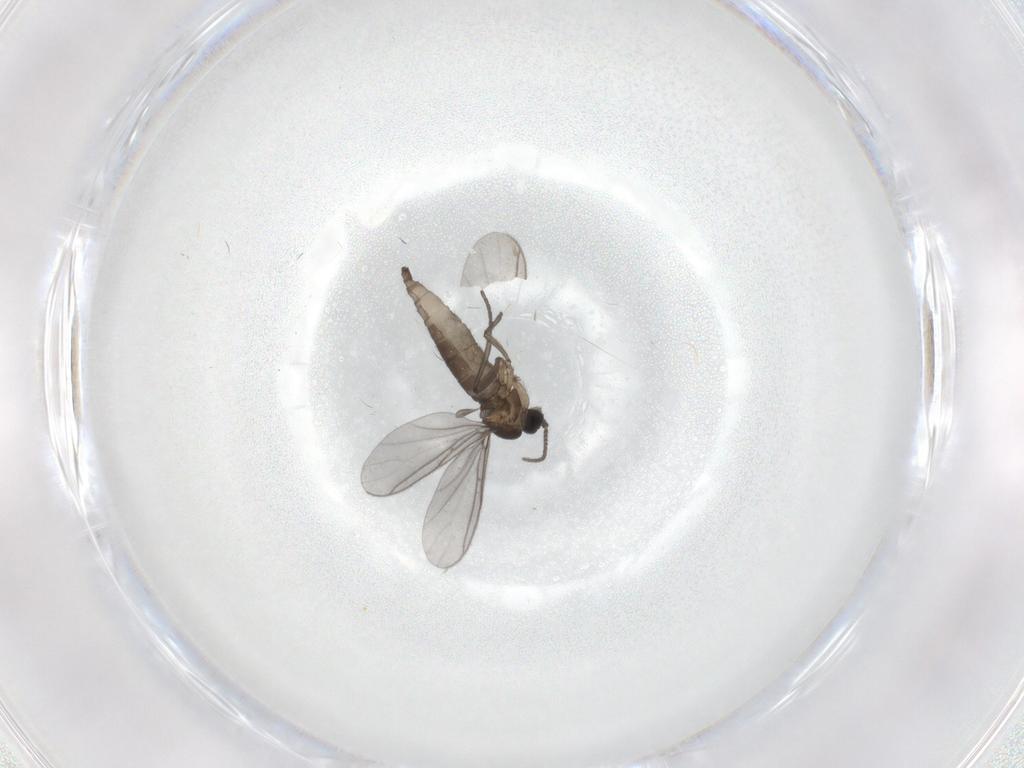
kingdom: Animalia
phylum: Arthropoda
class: Insecta
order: Diptera
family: Sciaridae
